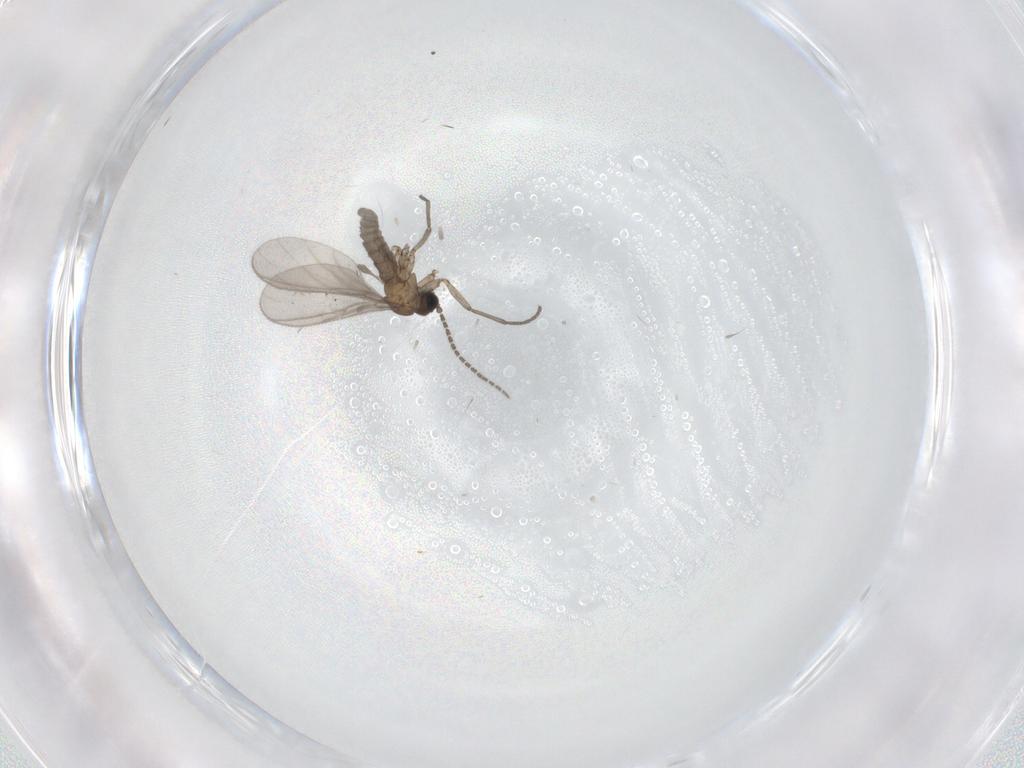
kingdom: Animalia
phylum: Arthropoda
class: Insecta
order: Diptera
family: Sciaridae
